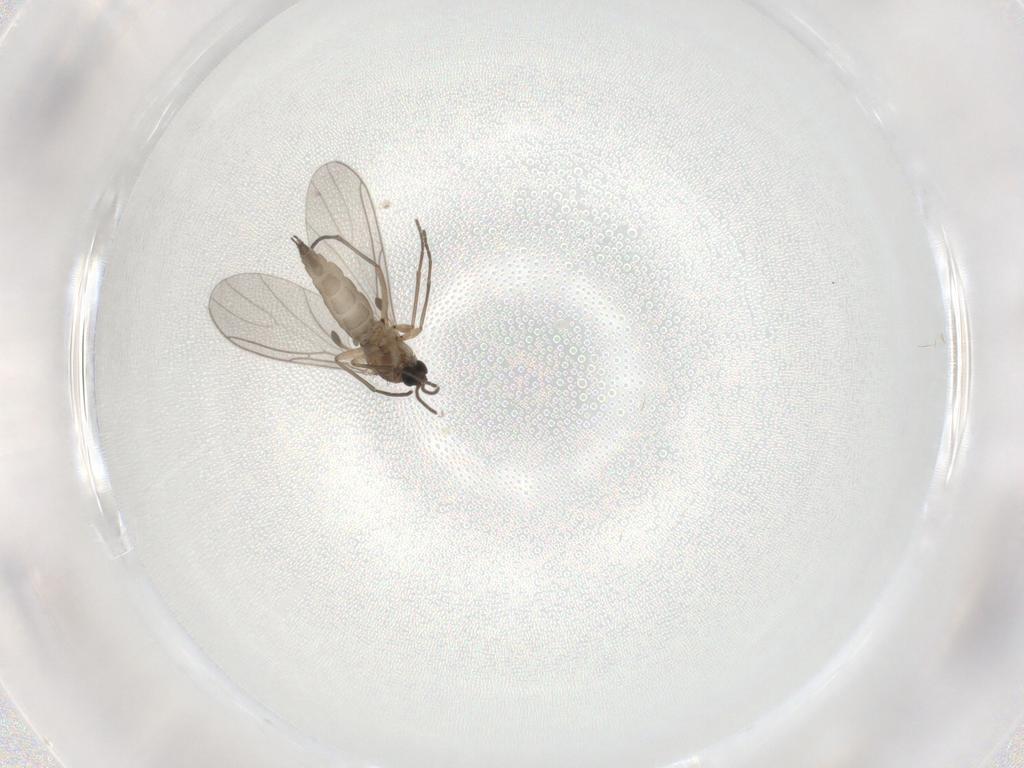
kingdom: Animalia
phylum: Arthropoda
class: Insecta
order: Diptera
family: Sciaridae
